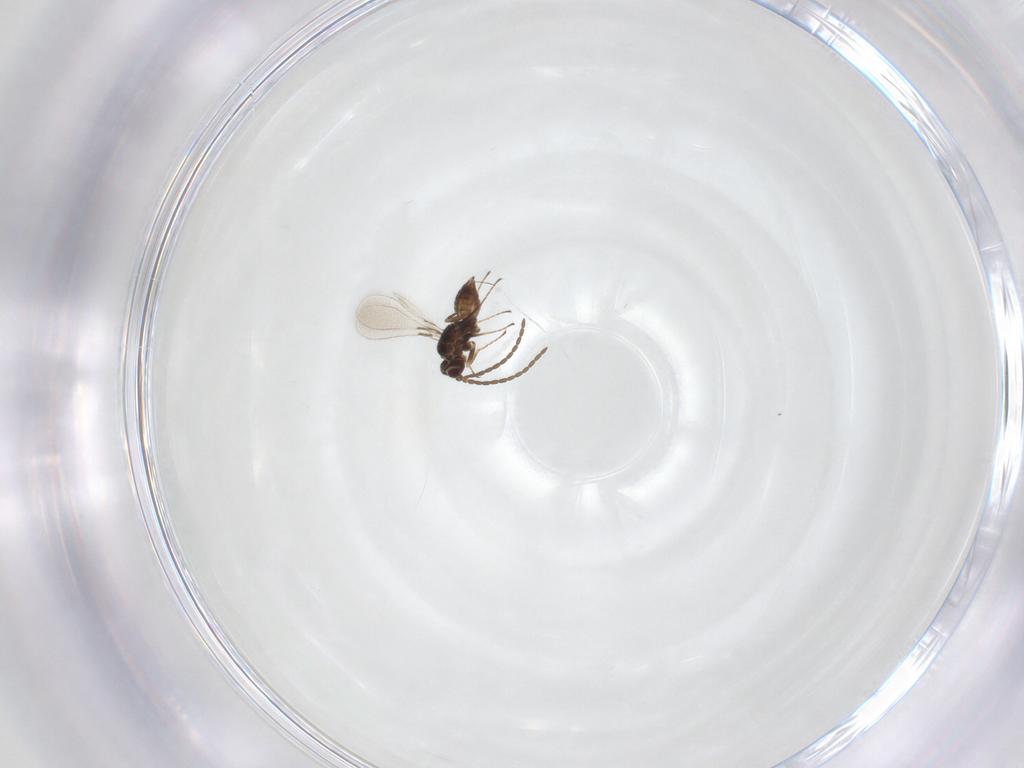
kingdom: Animalia
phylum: Arthropoda
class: Insecta
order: Hymenoptera
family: Mymaridae
